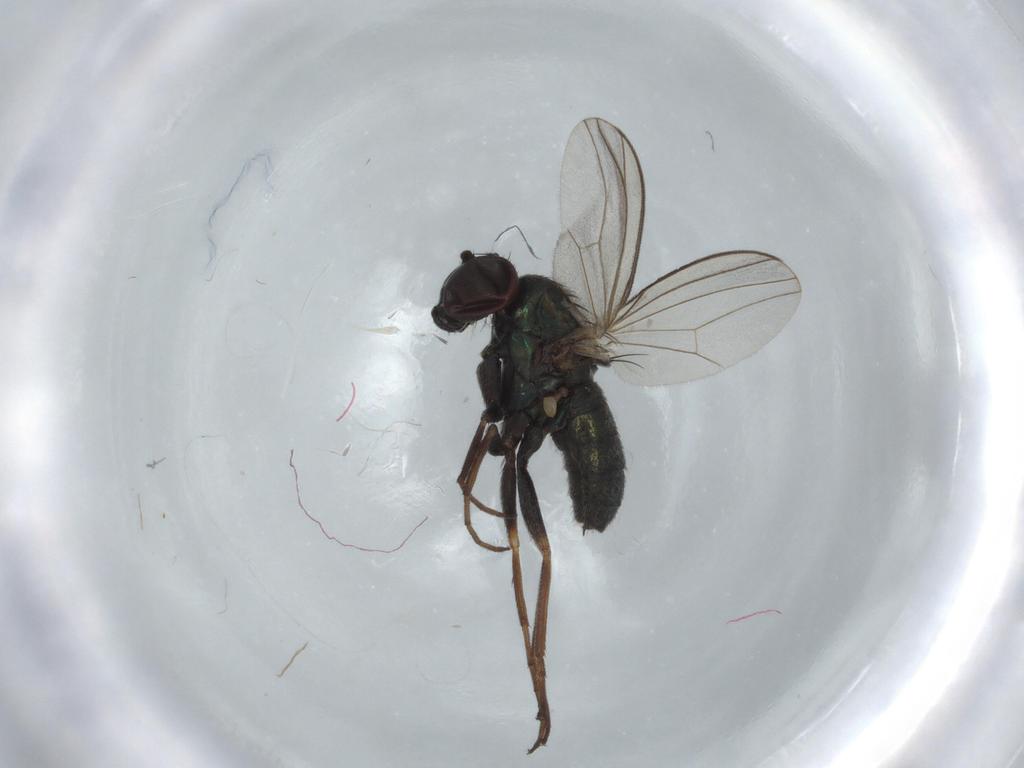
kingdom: Animalia
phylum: Arthropoda
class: Insecta
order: Diptera
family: Dolichopodidae
